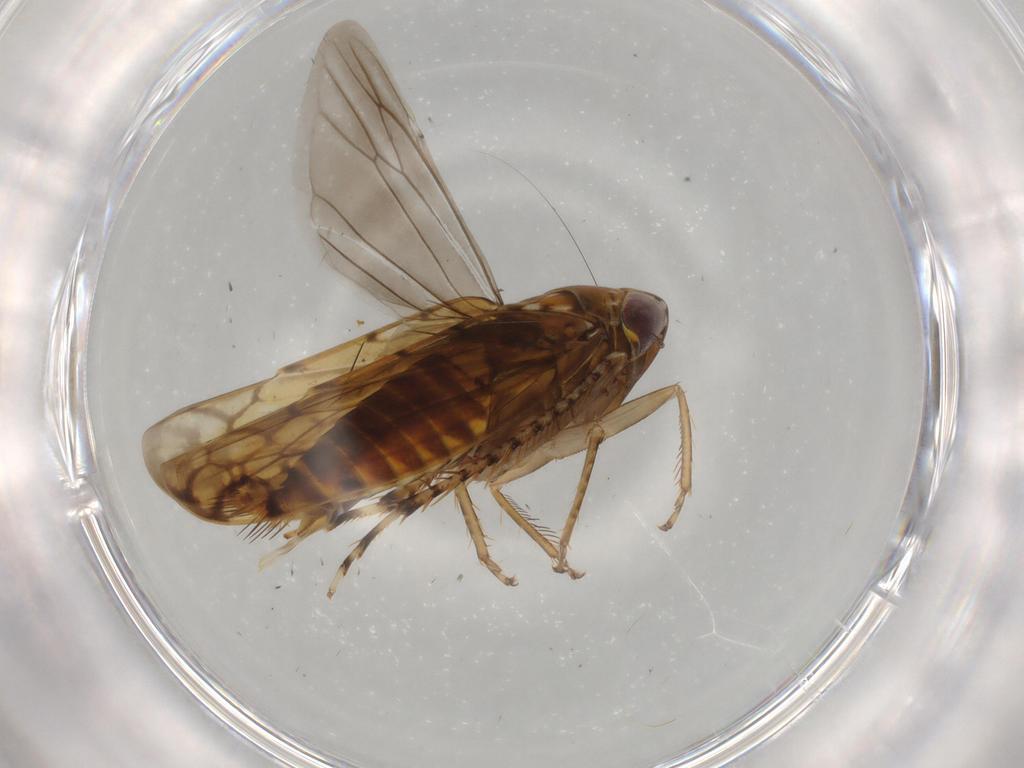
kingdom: Animalia
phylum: Arthropoda
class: Insecta
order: Hemiptera
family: Cicadellidae
